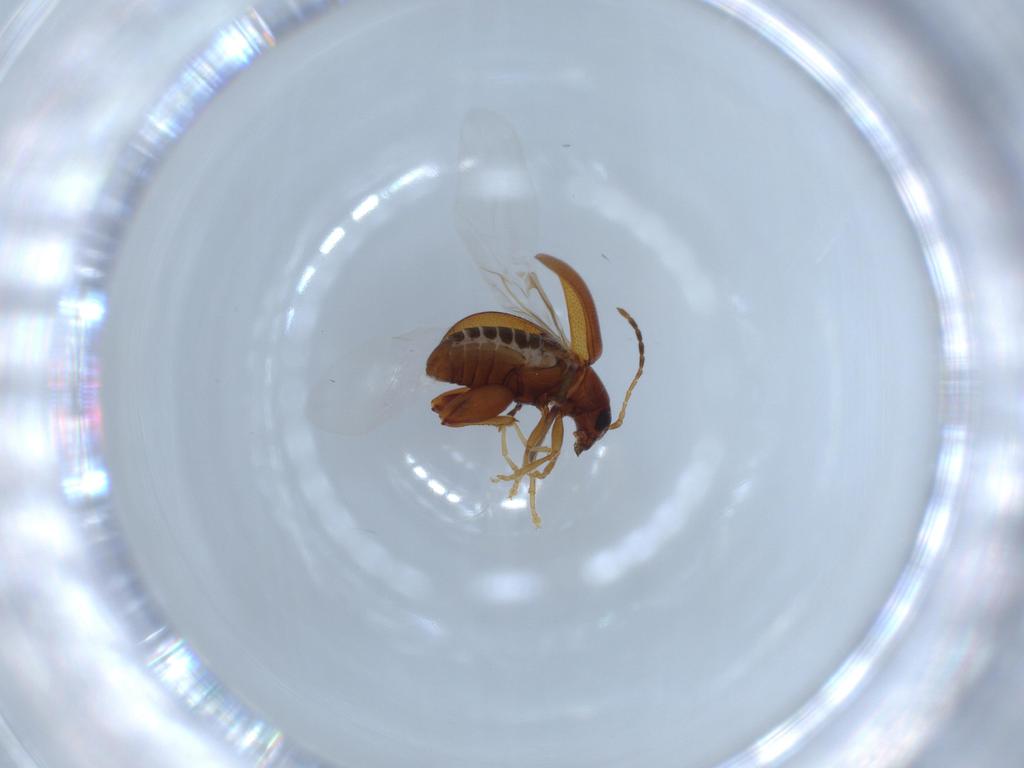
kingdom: Animalia
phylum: Arthropoda
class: Insecta
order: Coleoptera
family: Chrysomelidae
